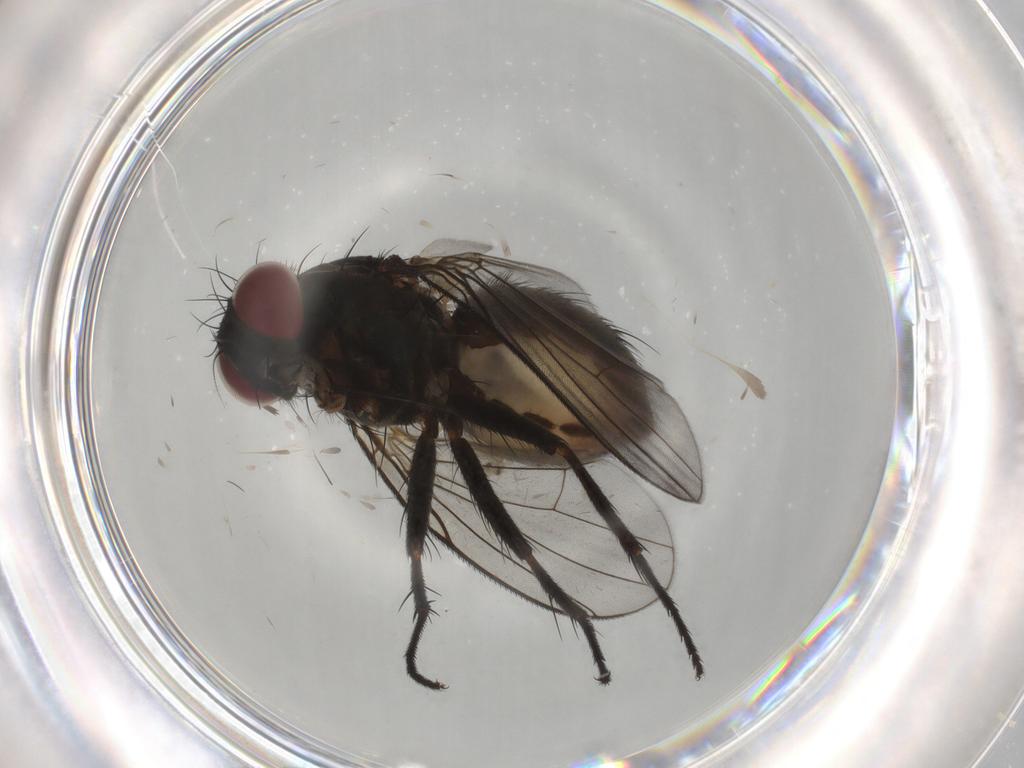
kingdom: Animalia
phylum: Arthropoda
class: Insecta
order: Diptera
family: Muscidae
